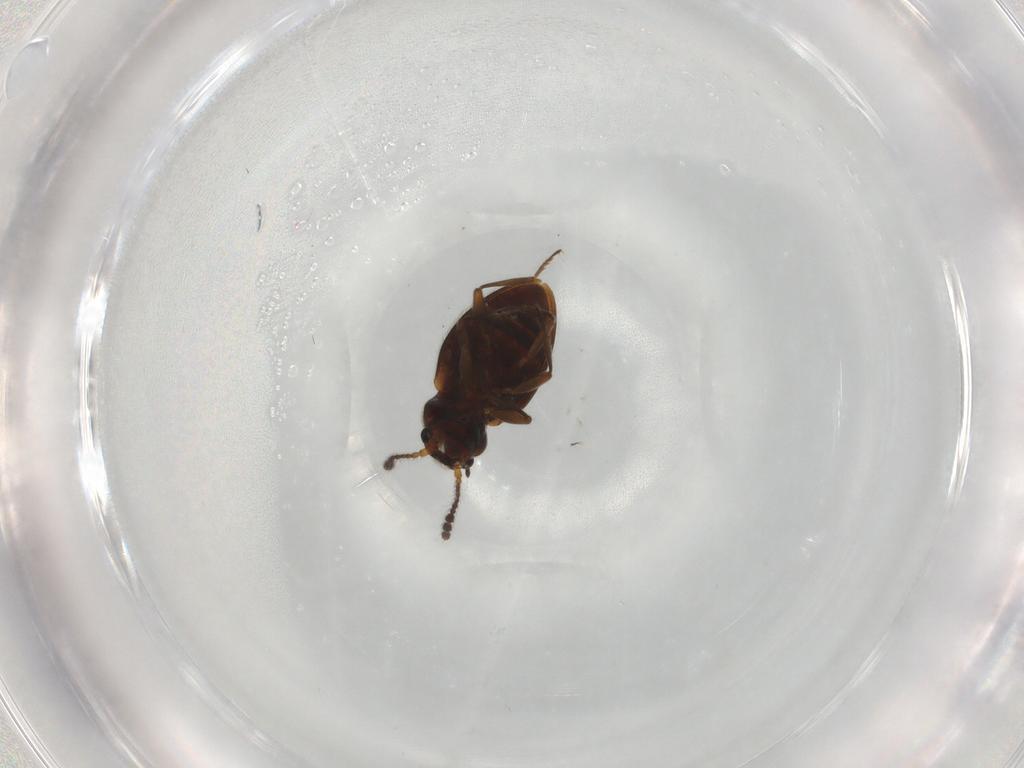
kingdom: Animalia
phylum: Arthropoda
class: Insecta
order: Coleoptera
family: Erotylidae
